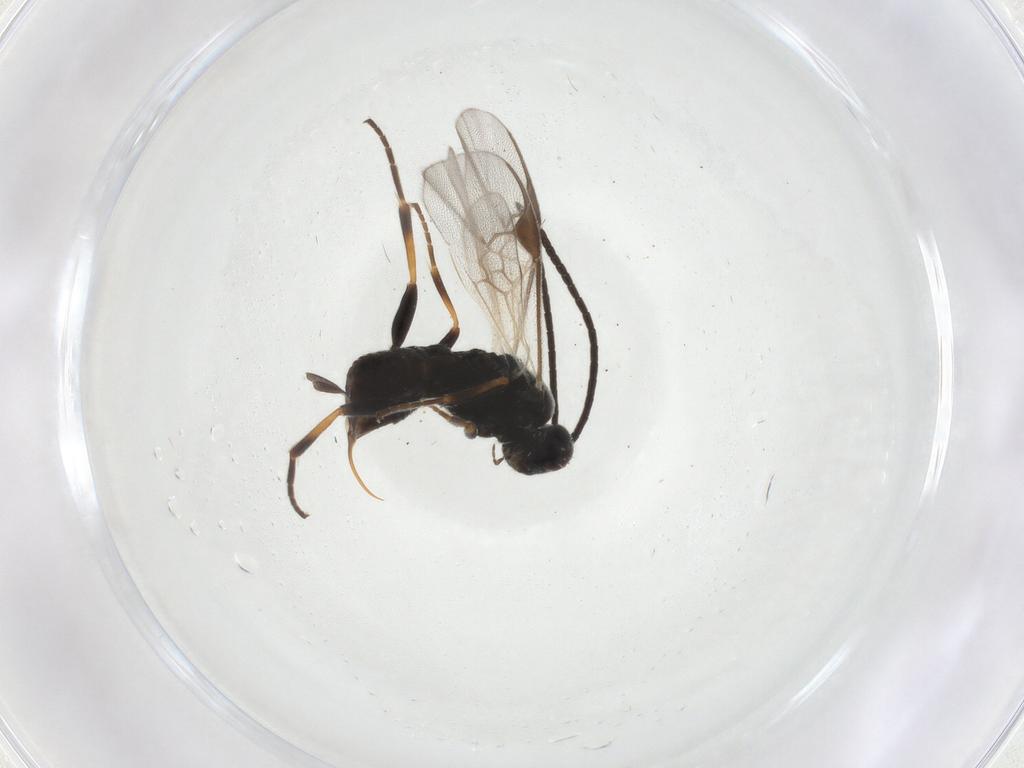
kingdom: Animalia
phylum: Arthropoda
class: Insecta
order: Hymenoptera
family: Braconidae
